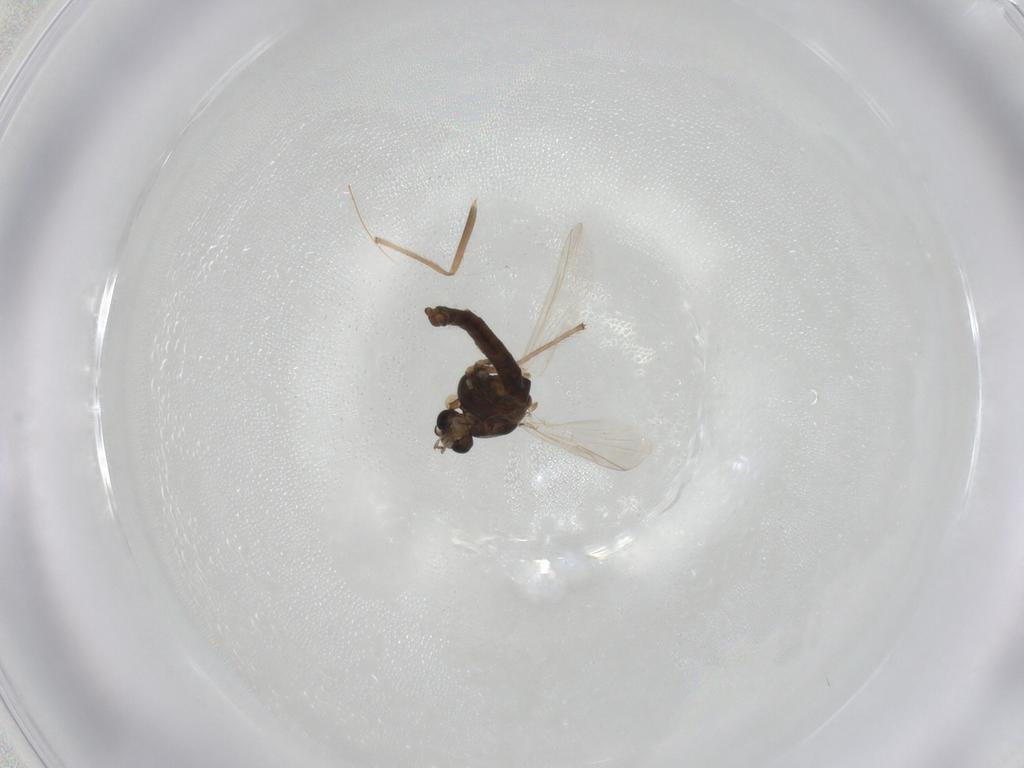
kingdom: Animalia
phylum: Arthropoda
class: Insecta
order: Diptera
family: Chironomidae
